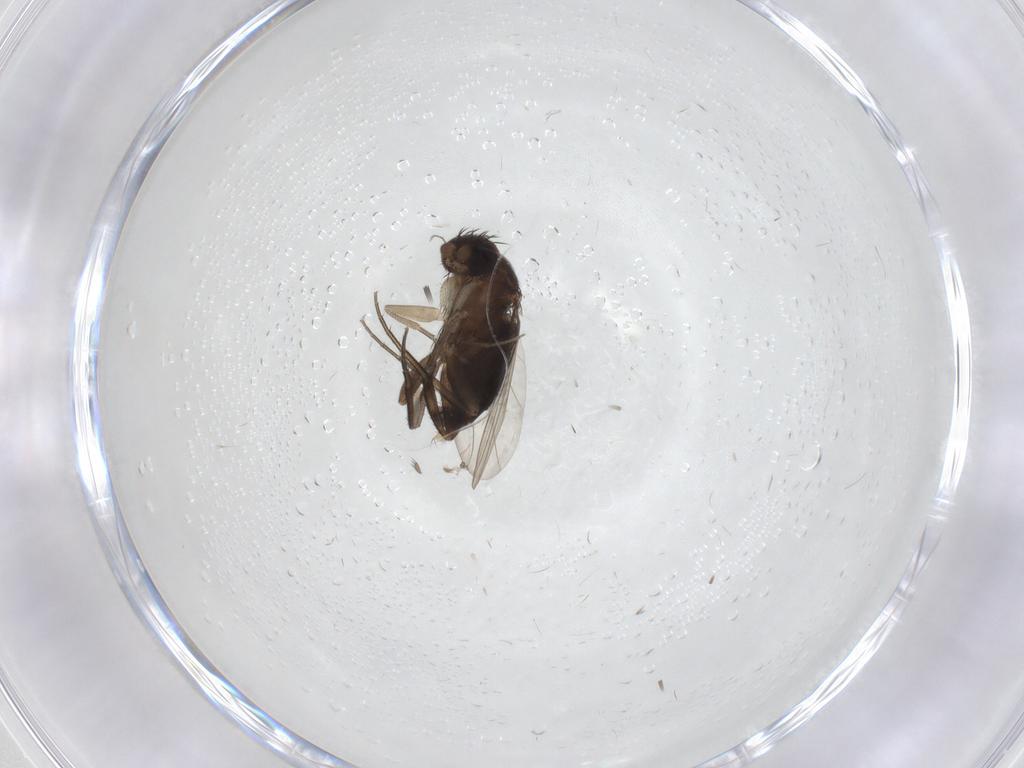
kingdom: Animalia
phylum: Arthropoda
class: Insecta
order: Diptera
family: Phoridae
